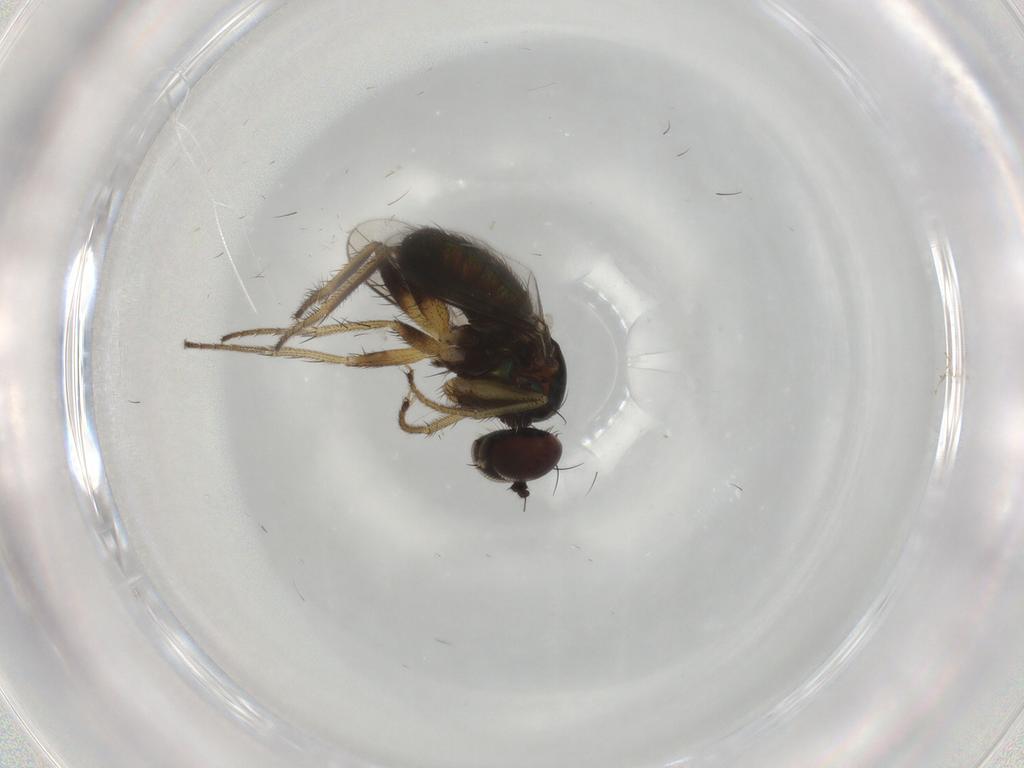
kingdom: Animalia
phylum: Arthropoda
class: Insecta
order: Diptera
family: Dolichopodidae
